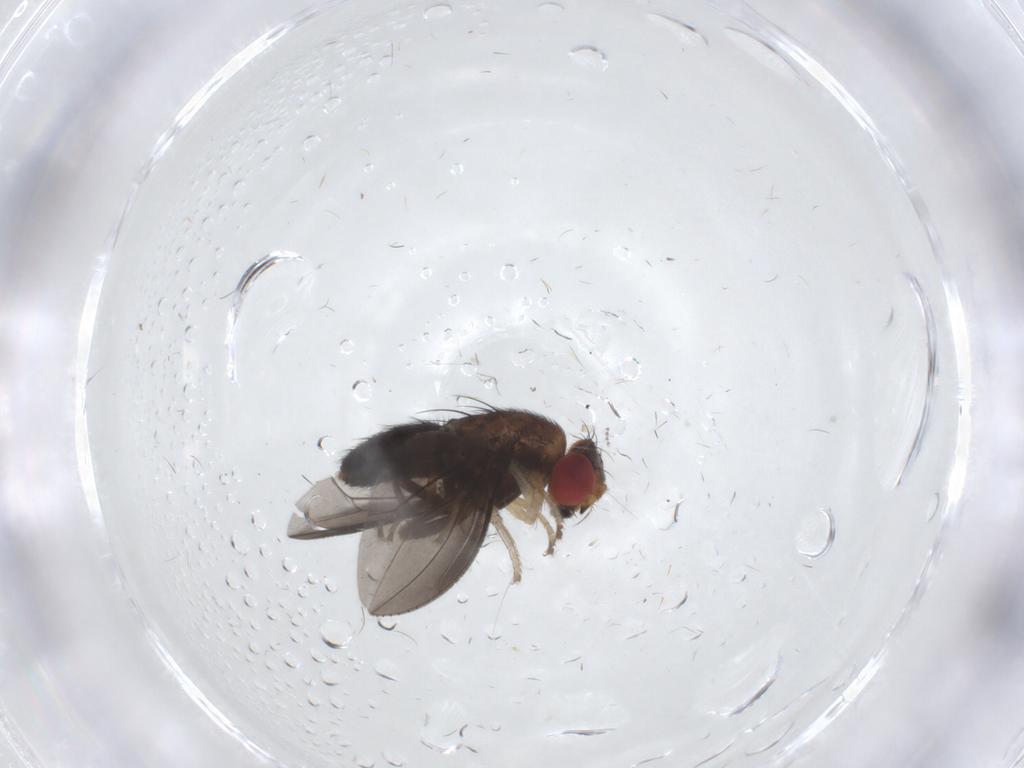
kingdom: Animalia
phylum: Arthropoda
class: Insecta
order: Diptera
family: Drosophilidae
